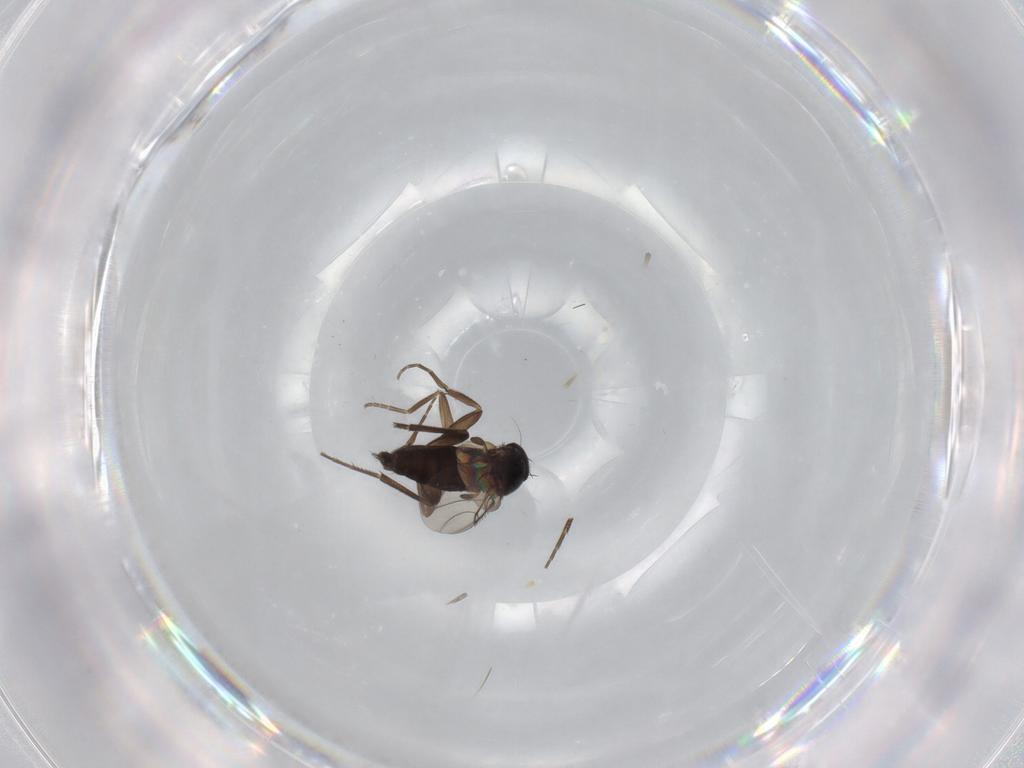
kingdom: Animalia
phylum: Arthropoda
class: Insecta
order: Diptera
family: Phoridae
